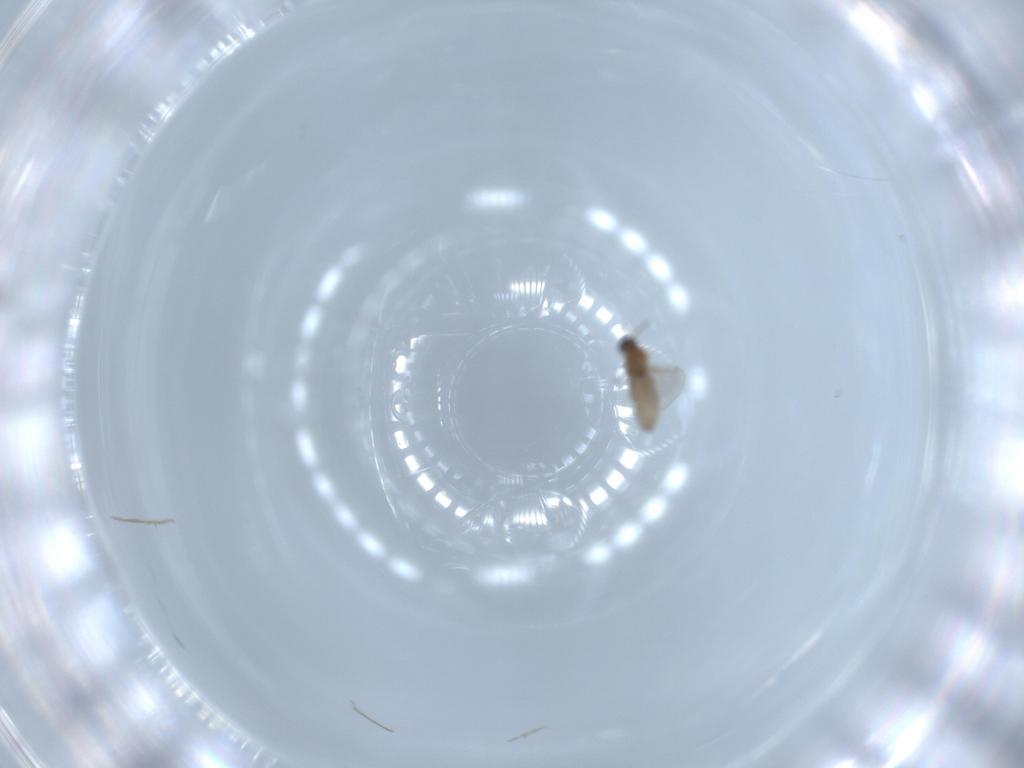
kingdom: Animalia
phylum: Arthropoda
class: Insecta
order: Diptera
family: Cecidomyiidae
